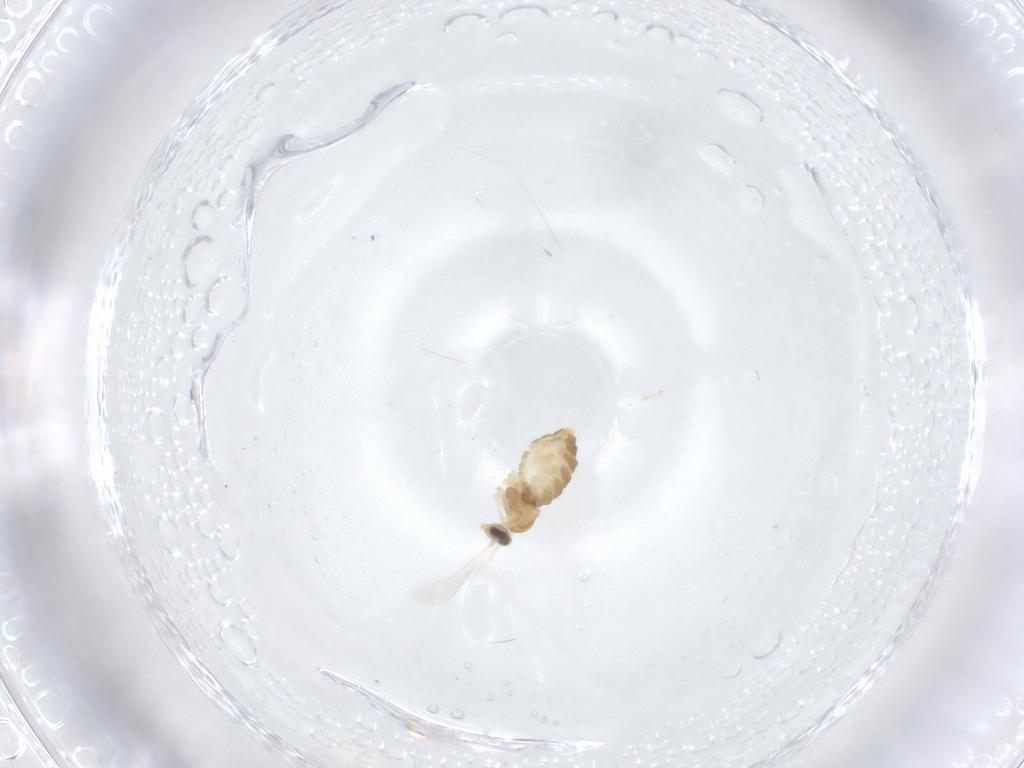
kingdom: Animalia
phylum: Arthropoda
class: Insecta
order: Diptera
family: Cecidomyiidae
